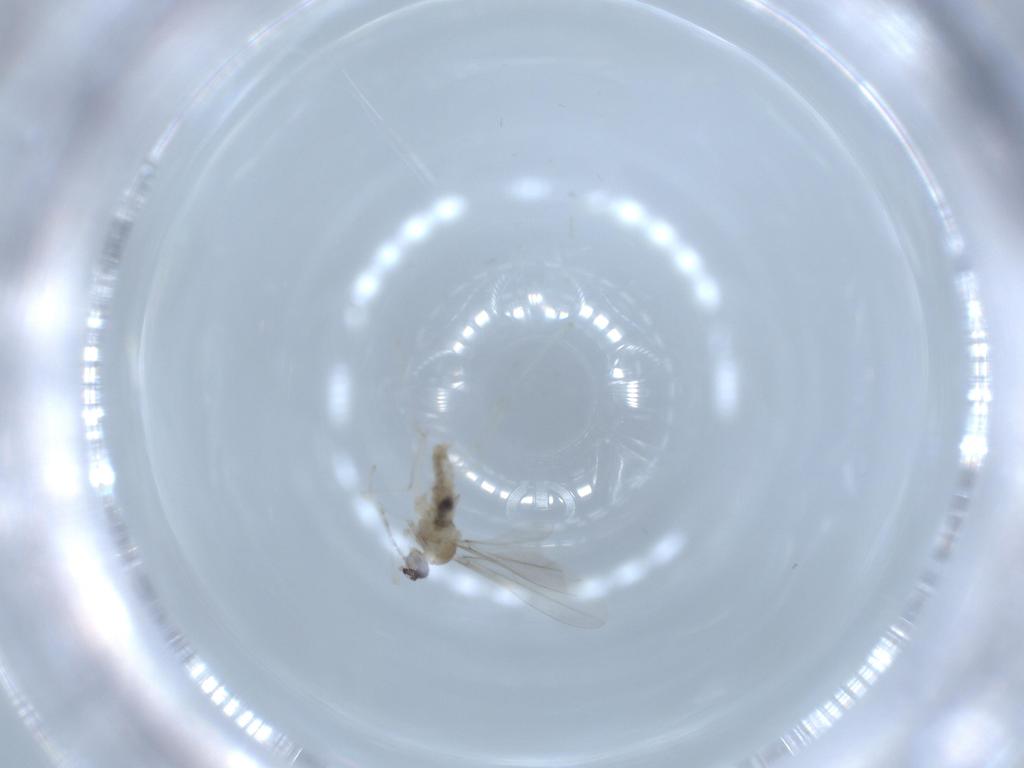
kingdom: Animalia
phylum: Arthropoda
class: Insecta
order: Diptera
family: Cecidomyiidae
